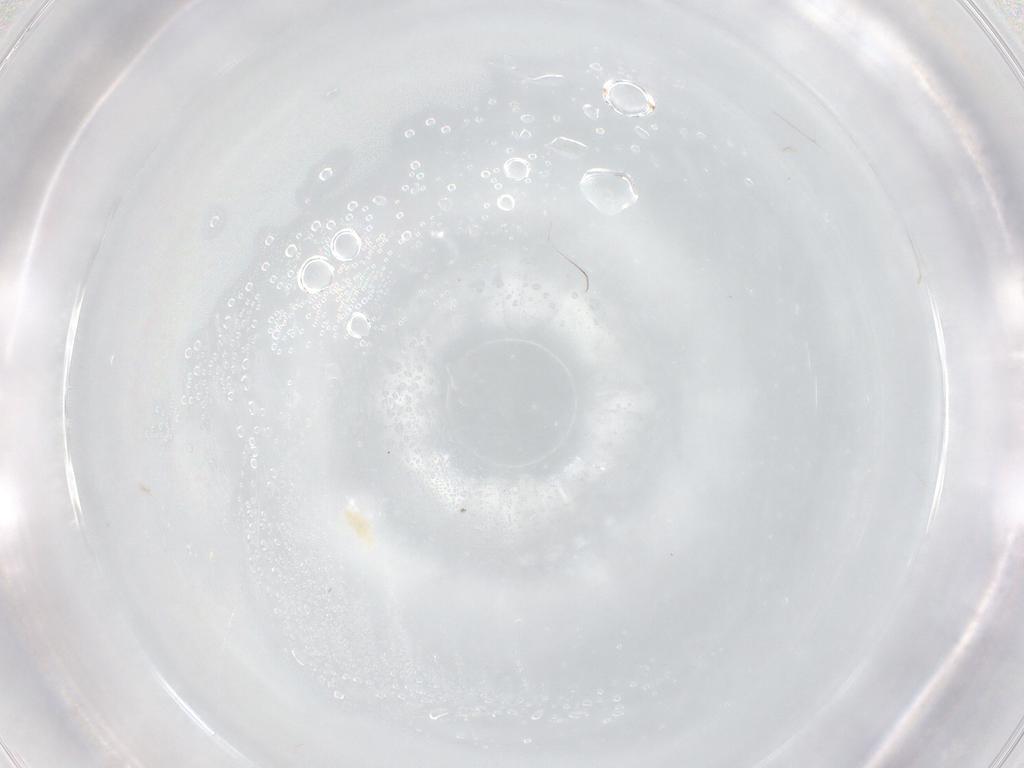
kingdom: Animalia
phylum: Arthropoda
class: Arachnida
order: Trombidiformes
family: Eupodidae
